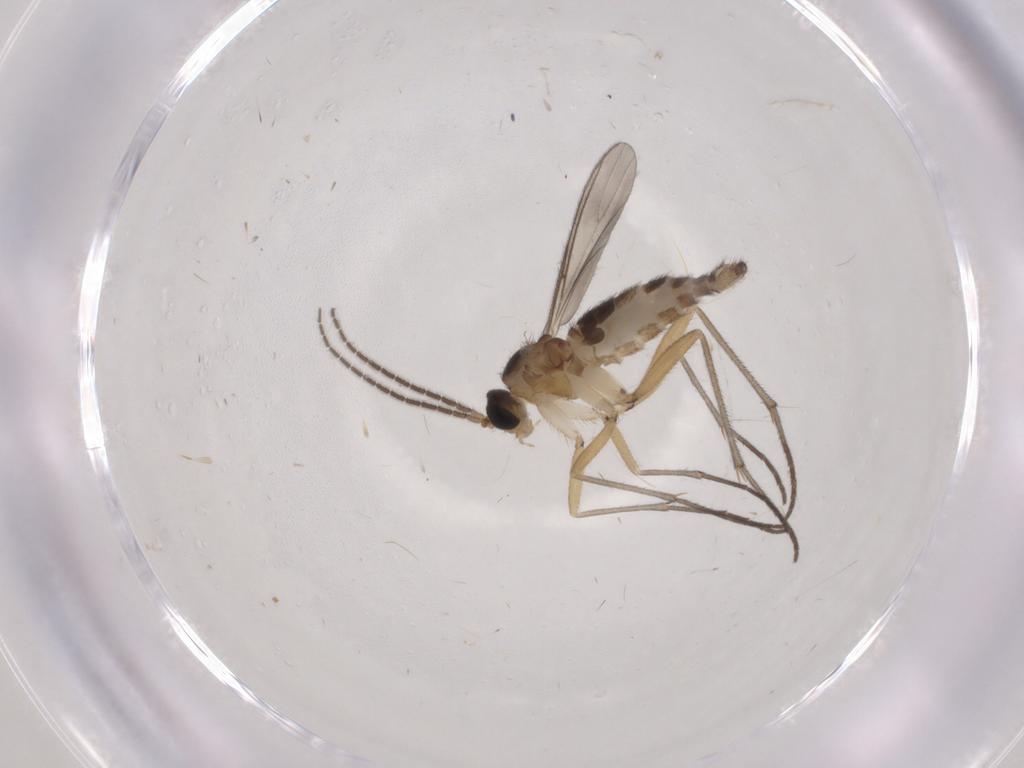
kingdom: Animalia
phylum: Arthropoda
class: Insecta
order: Diptera
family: Sciaridae
